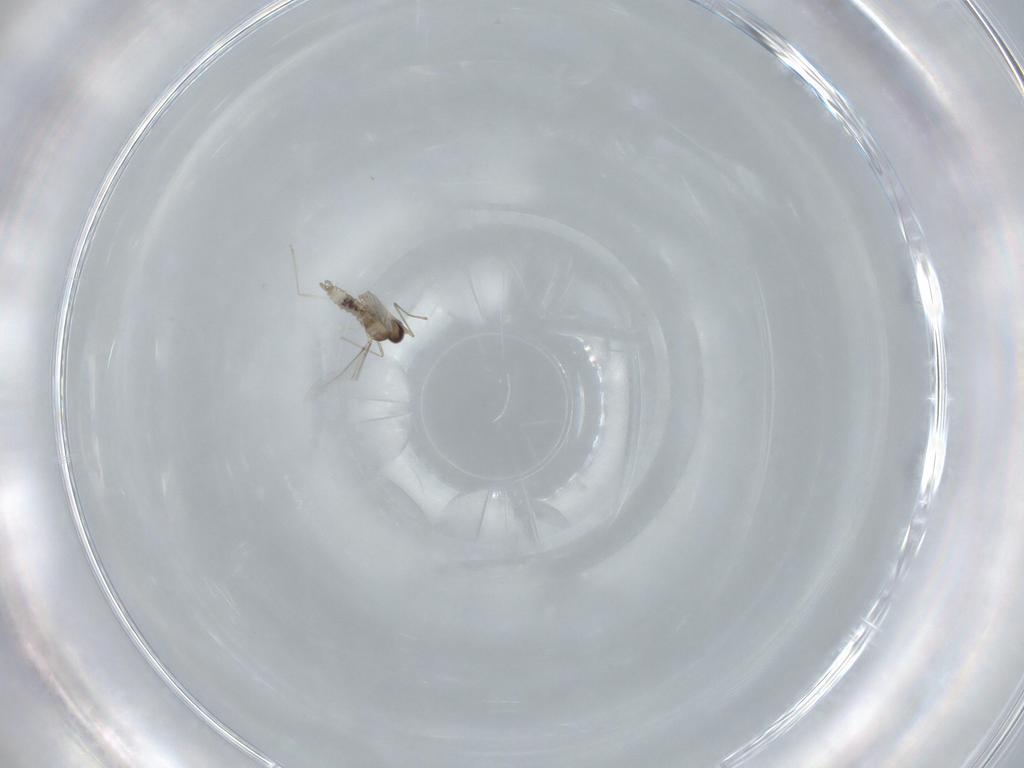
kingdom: Animalia
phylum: Arthropoda
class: Insecta
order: Diptera
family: Cecidomyiidae
